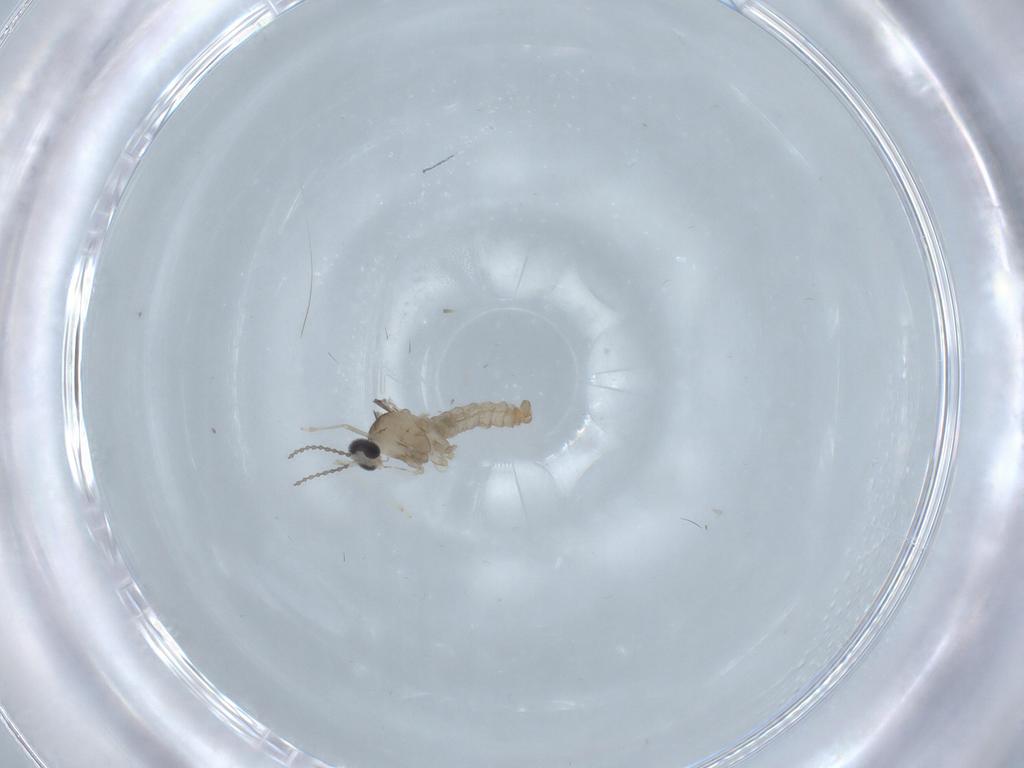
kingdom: Animalia
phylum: Arthropoda
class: Insecta
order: Diptera
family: Cecidomyiidae
